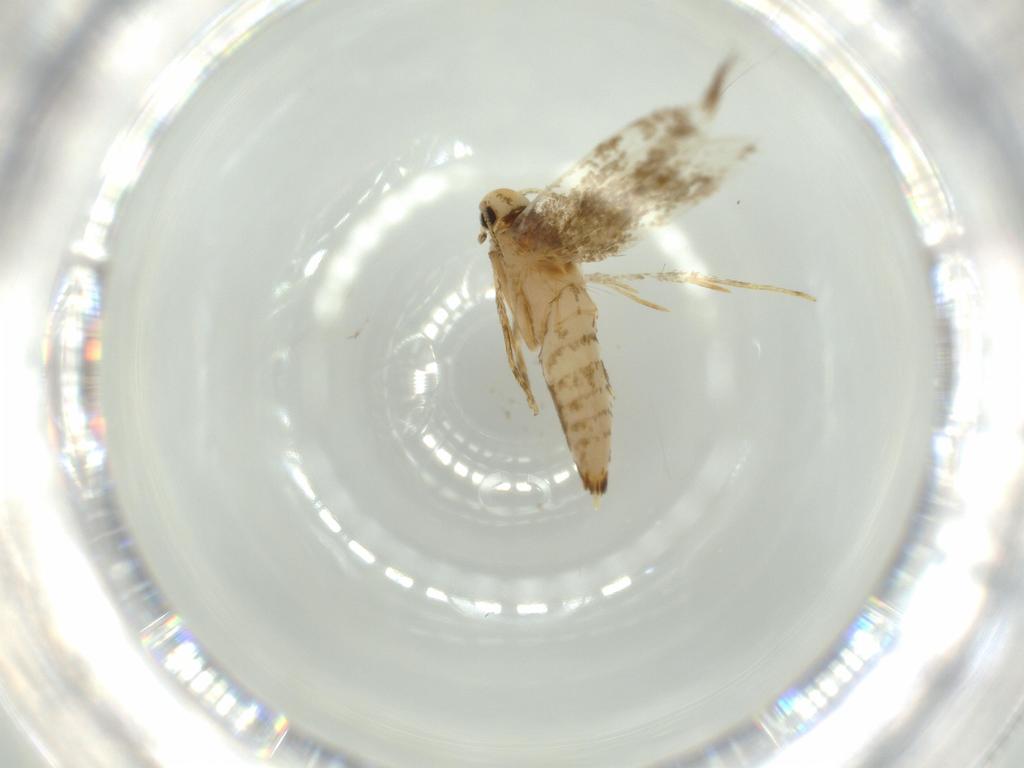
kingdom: Animalia
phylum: Arthropoda
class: Insecta
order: Lepidoptera
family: Tineidae
